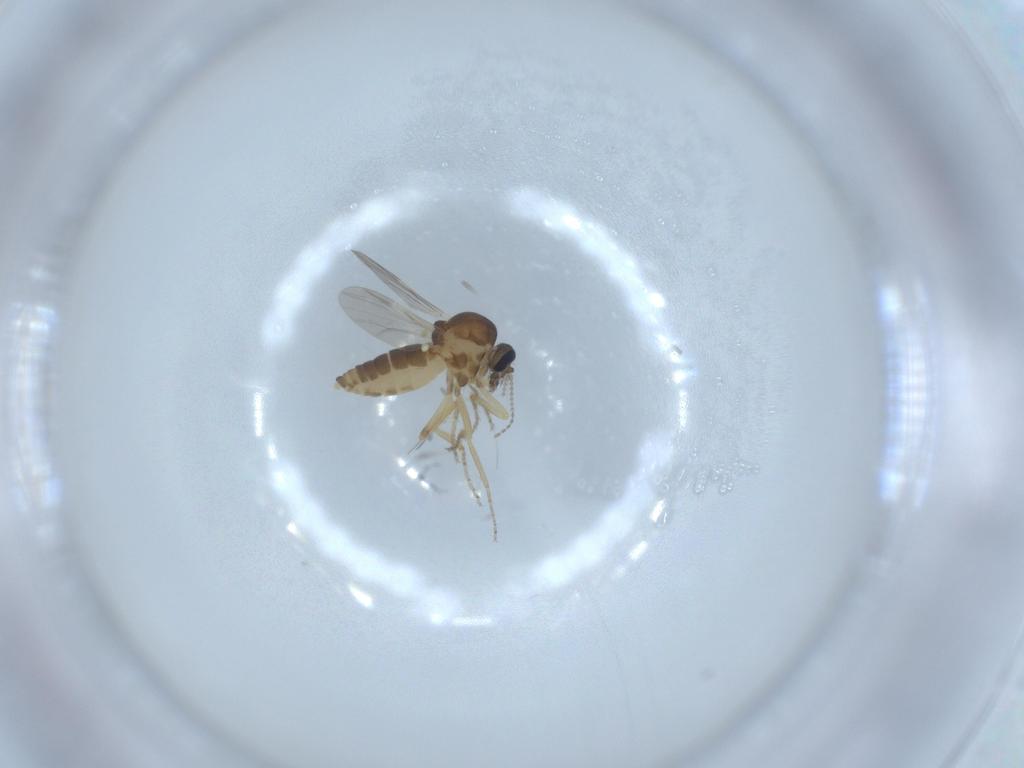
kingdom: Animalia
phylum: Arthropoda
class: Insecta
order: Diptera
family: Ceratopogonidae
